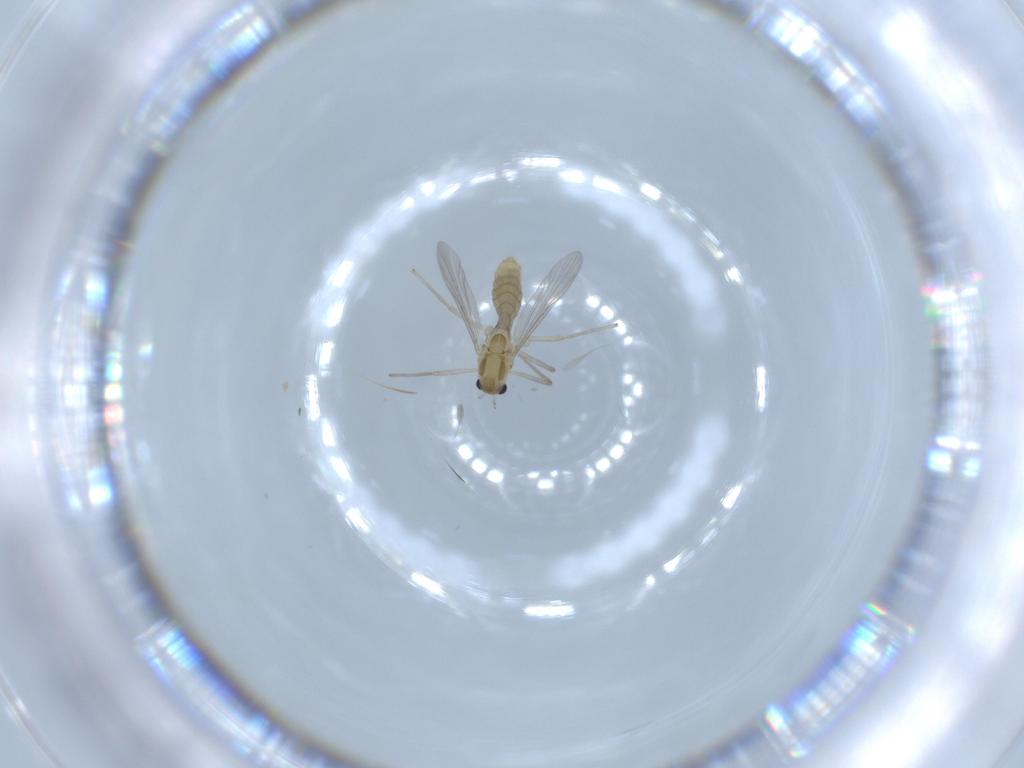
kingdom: Animalia
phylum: Arthropoda
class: Insecta
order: Diptera
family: Chironomidae
